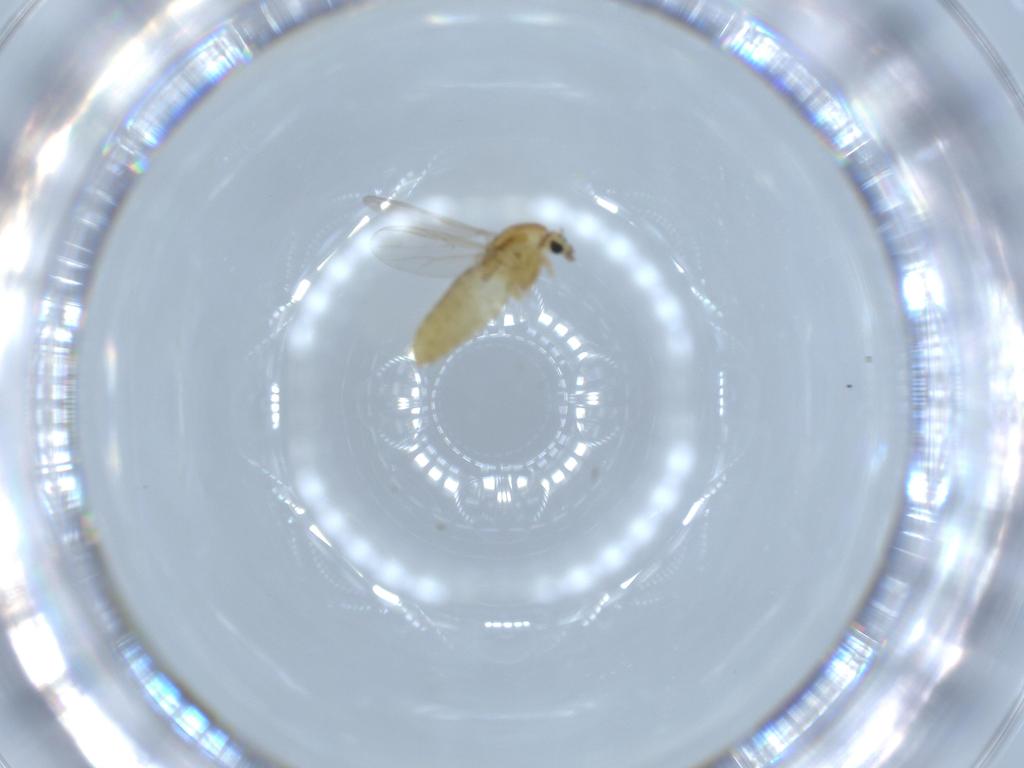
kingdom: Animalia
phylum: Arthropoda
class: Insecta
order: Diptera
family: Chironomidae
